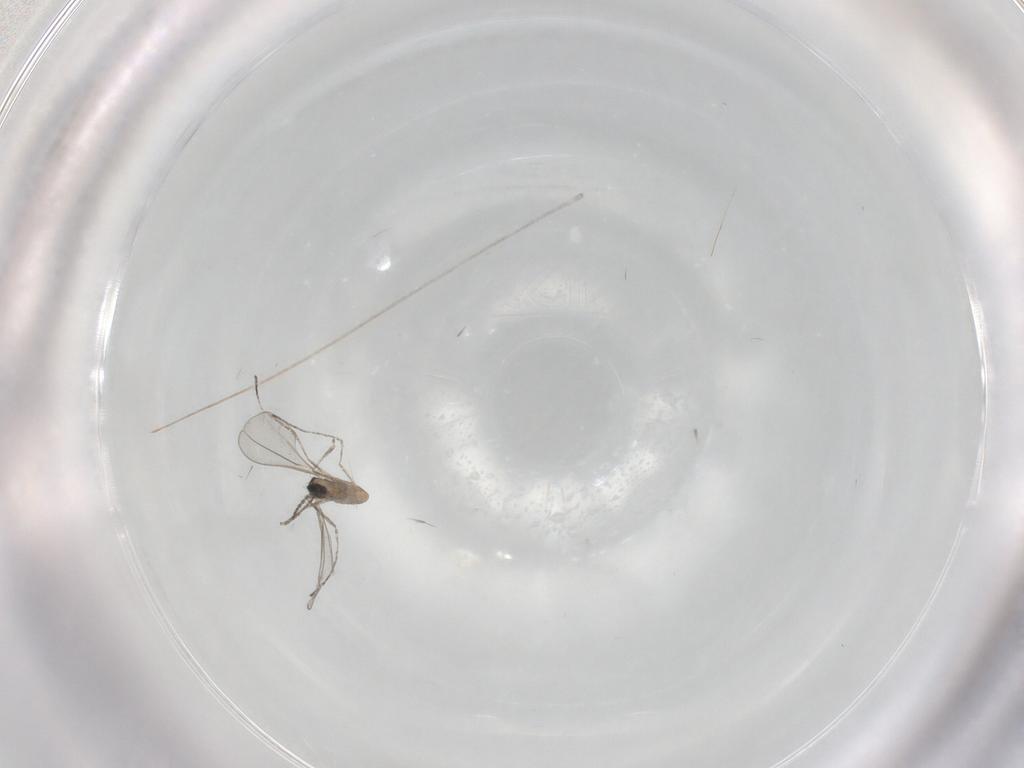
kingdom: Animalia
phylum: Arthropoda
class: Insecta
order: Diptera
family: Cecidomyiidae
